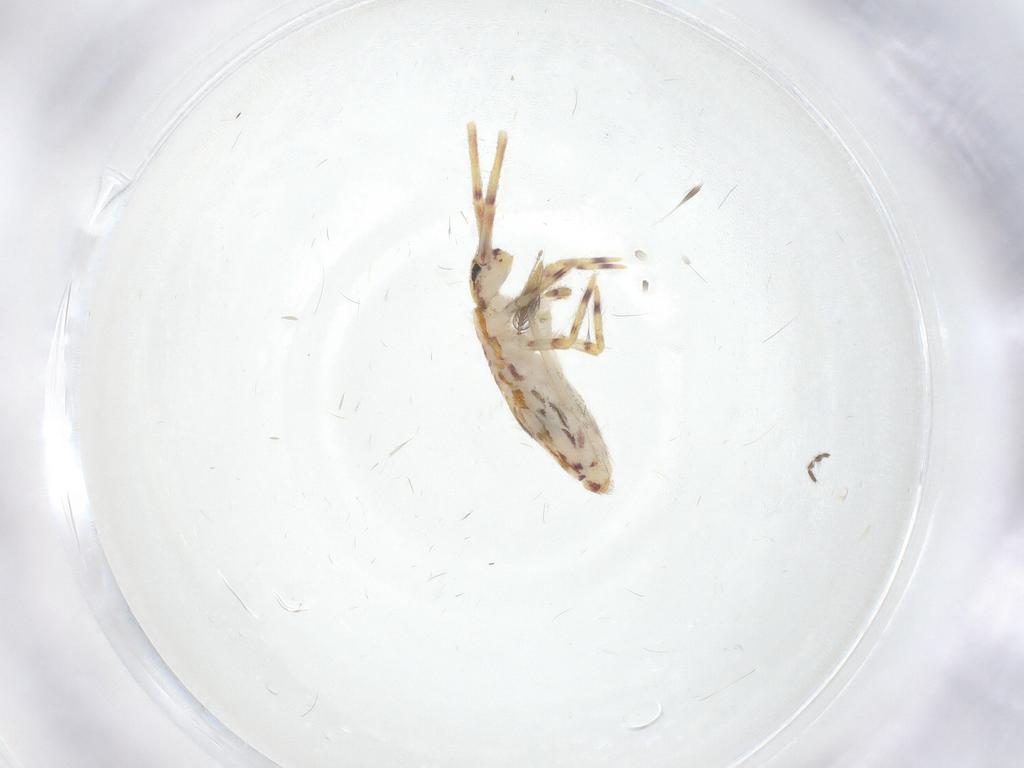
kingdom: Animalia
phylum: Arthropoda
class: Collembola
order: Entomobryomorpha
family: Entomobryidae
